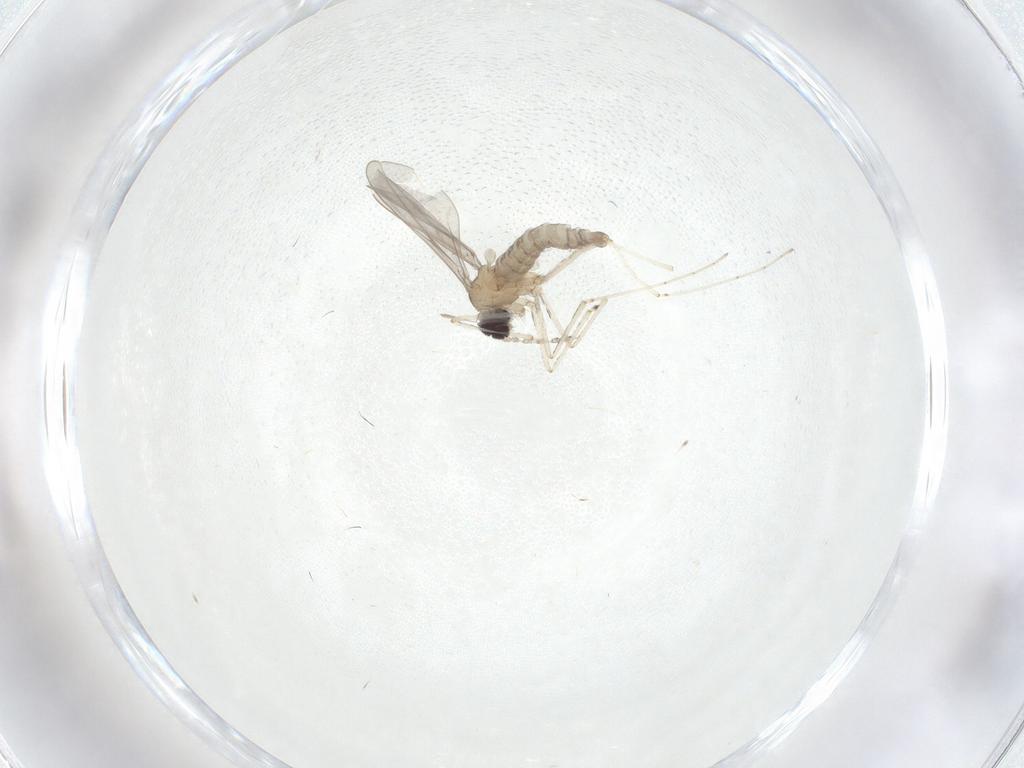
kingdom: Animalia
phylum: Arthropoda
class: Insecta
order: Diptera
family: Cecidomyiidae
